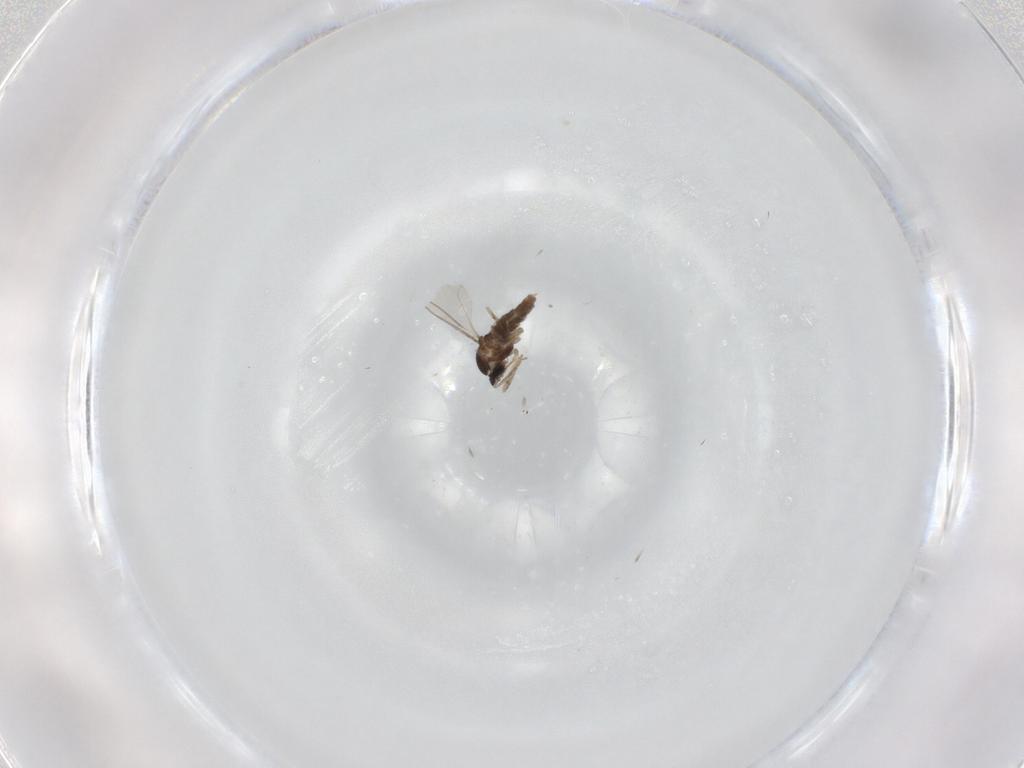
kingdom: Animalia
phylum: Arthropoda
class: Insecta
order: Diptera
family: Cecidomyiidae
